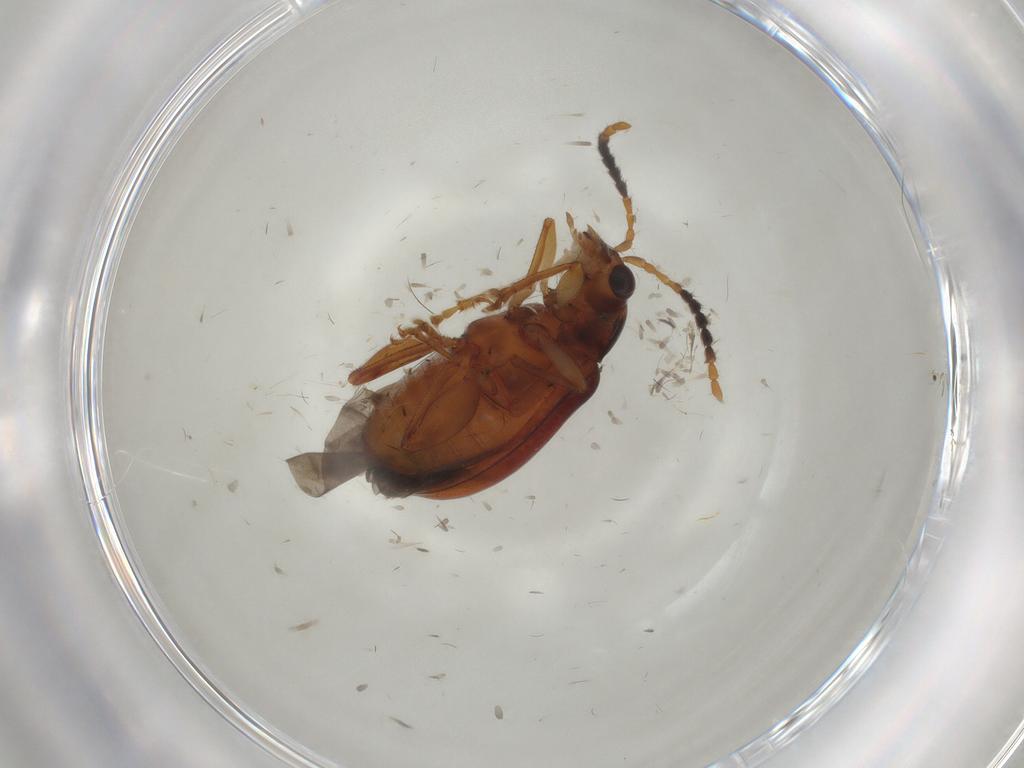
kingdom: Animalia
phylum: Arthropoda
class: Insecta
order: Coleoptera
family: Chrysomelidae
